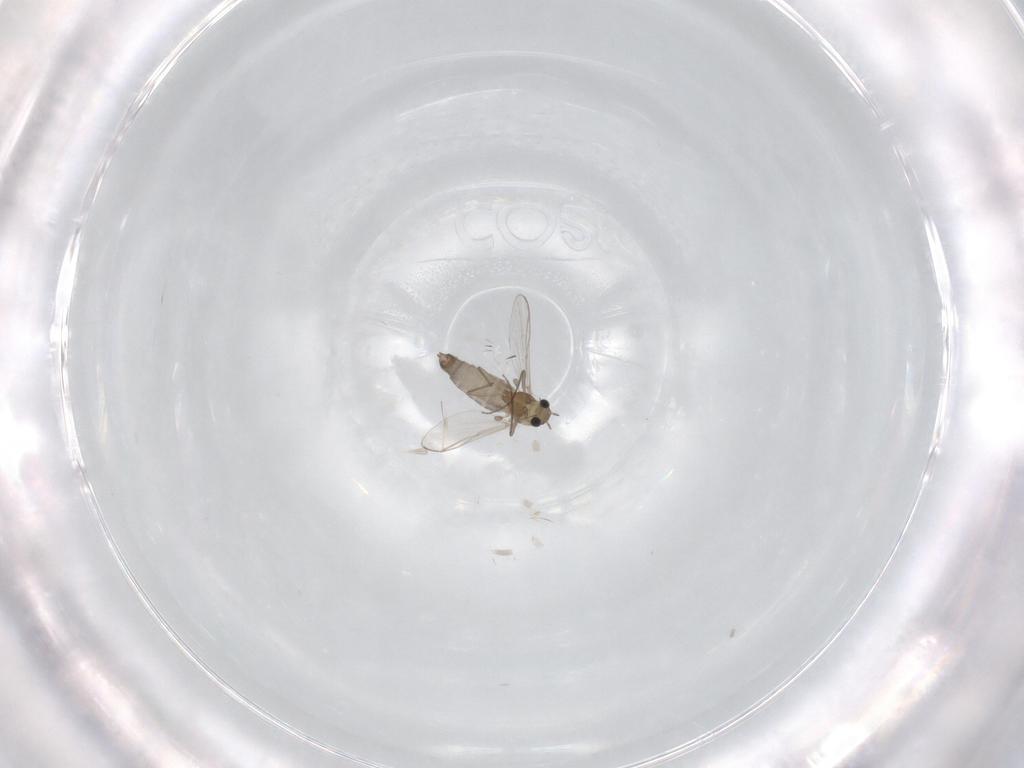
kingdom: Animalia
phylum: Arthropoda
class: Insecta
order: Diptera
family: Chironomidae
